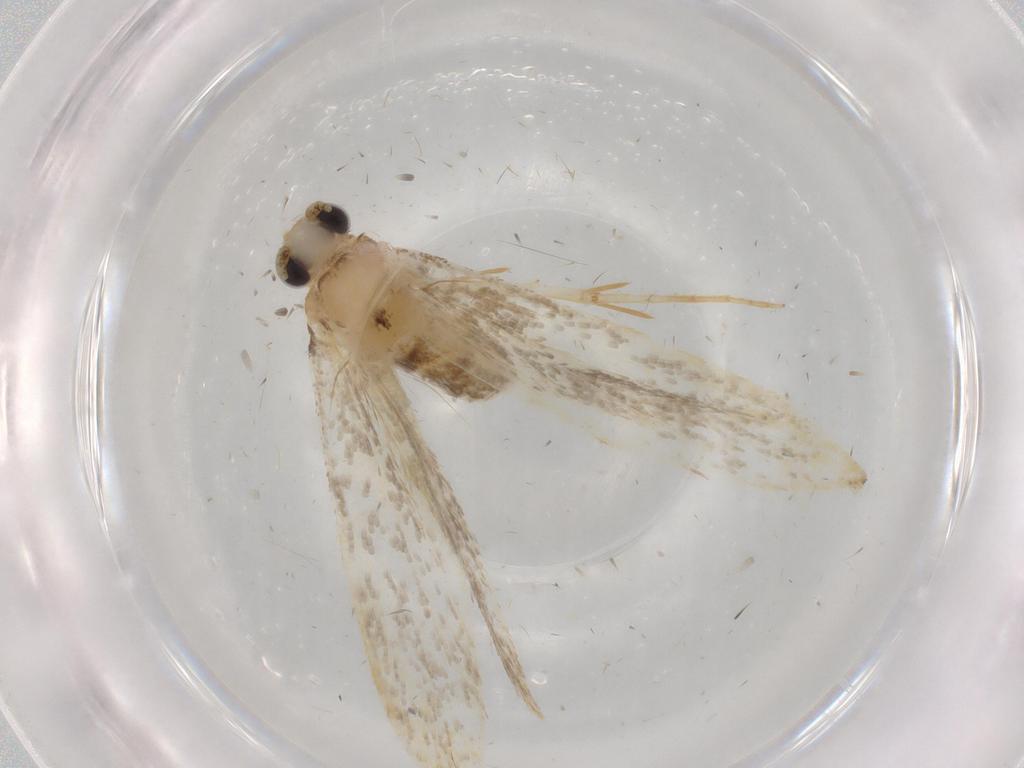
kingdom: Animalia
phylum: Arthropoda
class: Insecta
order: Lepidoptera
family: Tineidae
